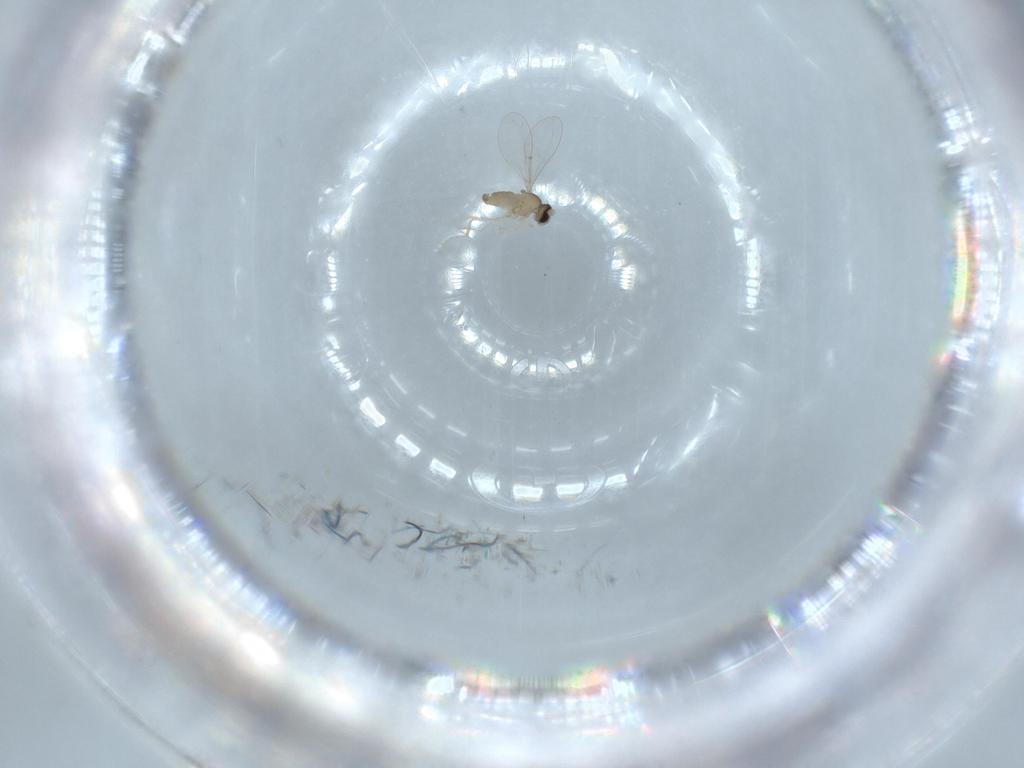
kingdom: Animalia
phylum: Arthropoda
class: Insecta
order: Diptera
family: Cecidomyiidae
